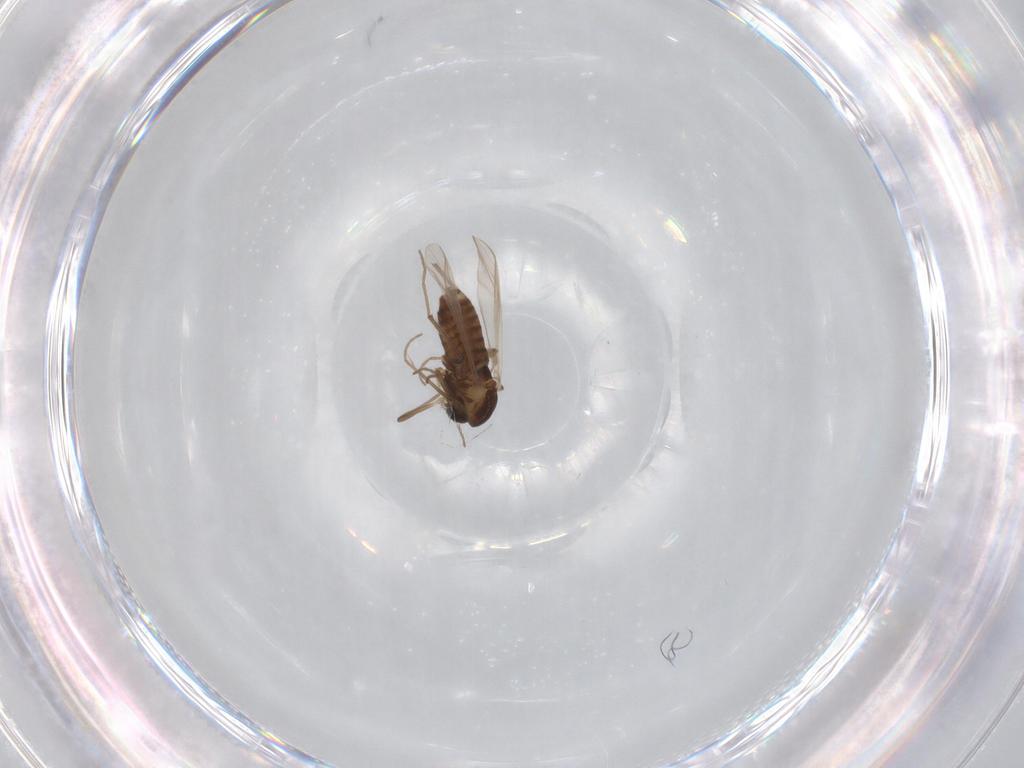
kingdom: Animalia
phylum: Arthropoda
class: Insecta
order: Diptera
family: Chironomidae
